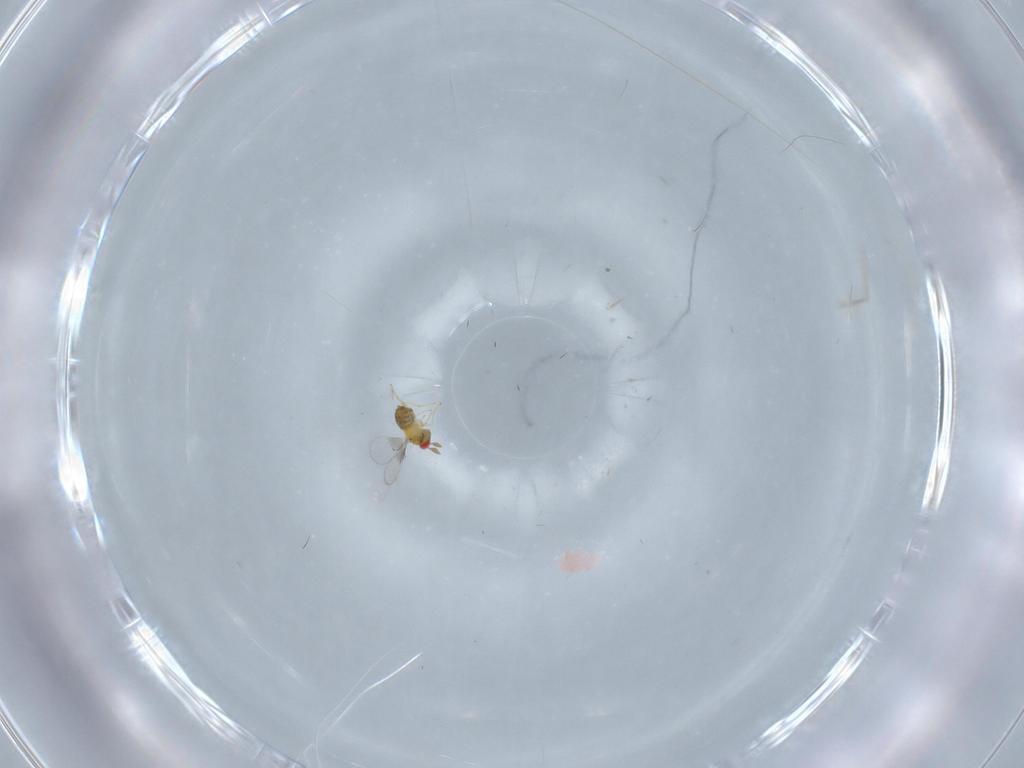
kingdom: Animalia
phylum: Arthropoda
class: Insecta
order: Hymenoptera
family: Trichogrammatidae
